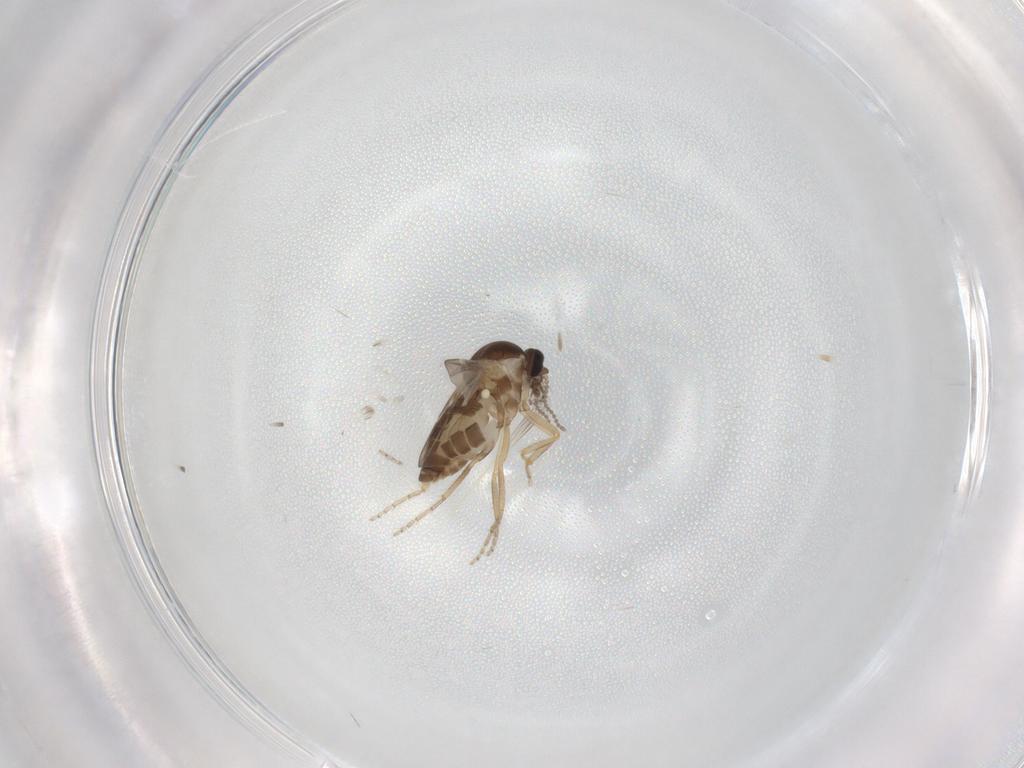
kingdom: Animalia
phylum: Arthropoda
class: Insecta
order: Diptera
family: Ceratopogonidae
